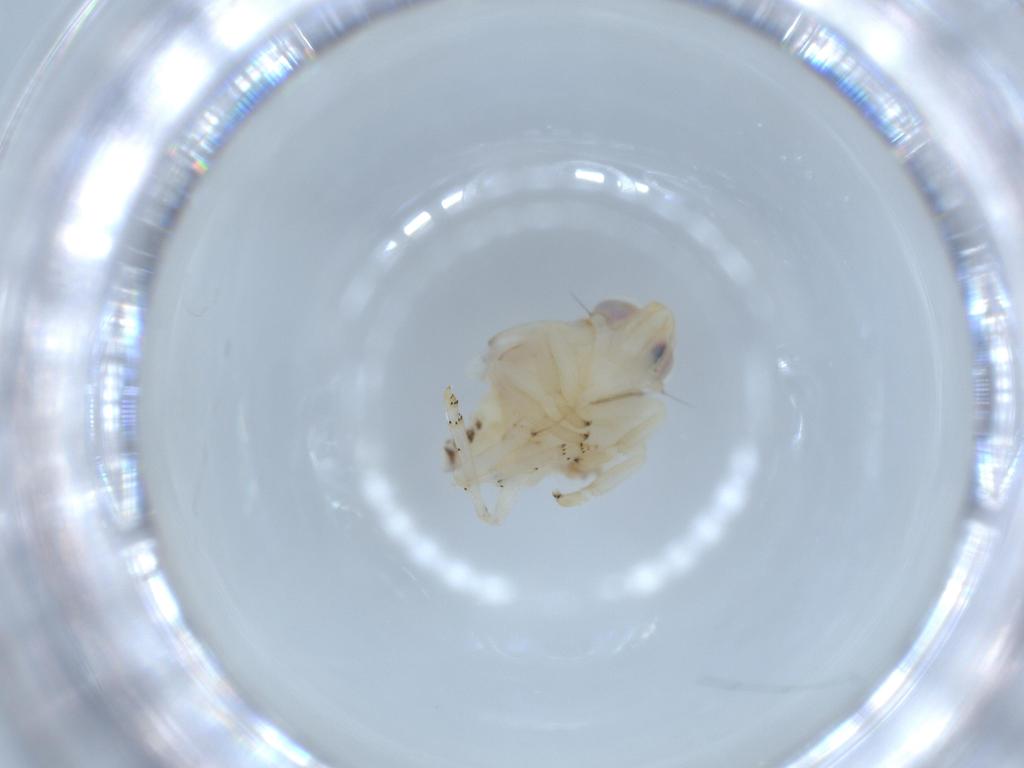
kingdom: Animalia
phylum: Arthropoda
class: Insecta
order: Hemiptera
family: Nogodinidae
